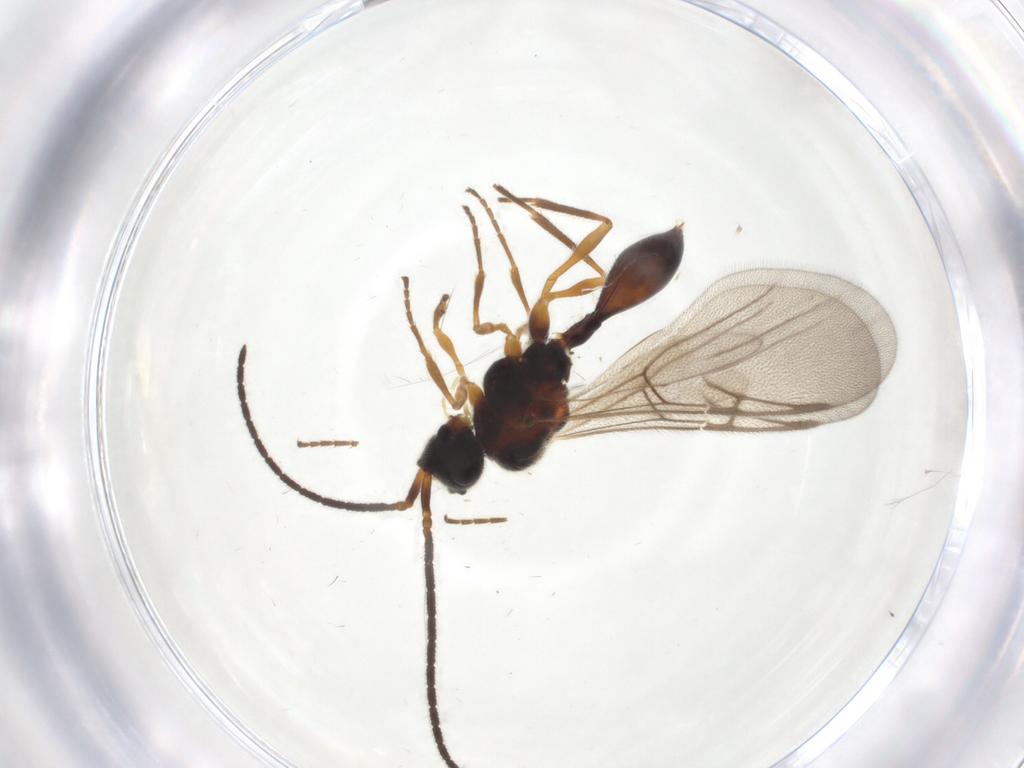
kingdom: Animalia
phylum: Arthropoda
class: Insecta
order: Hymenoptera
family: Diapriidae
